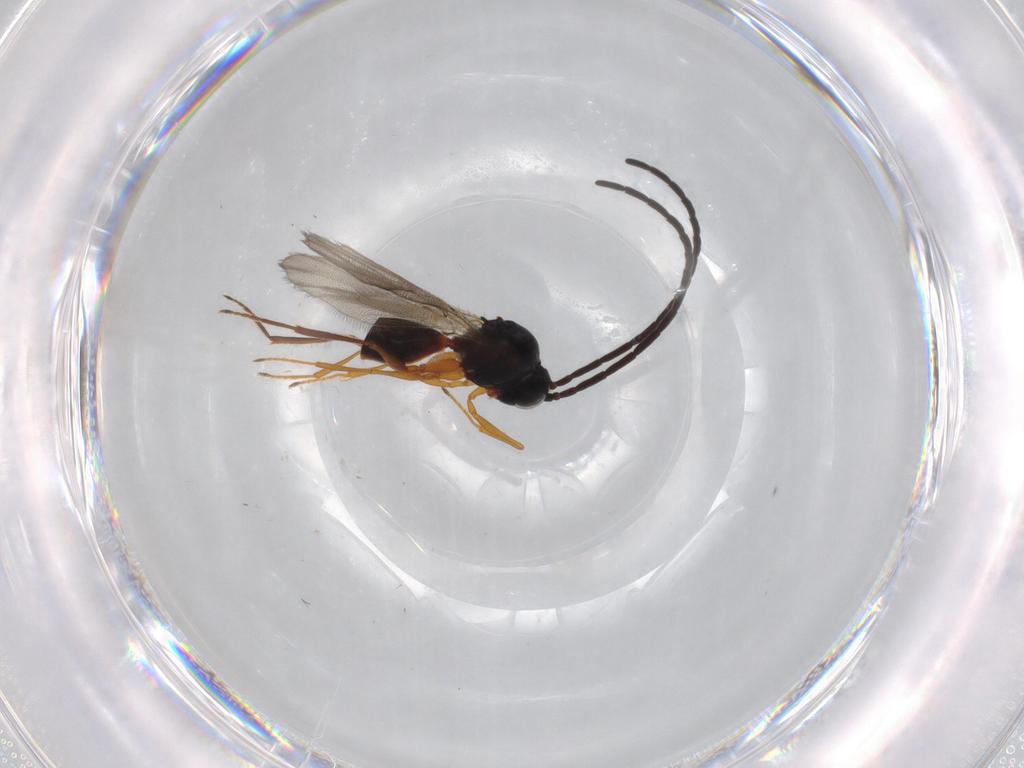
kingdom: Animalia
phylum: Arthropoda
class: Insecta
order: Hymenoptera
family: Figitidae
